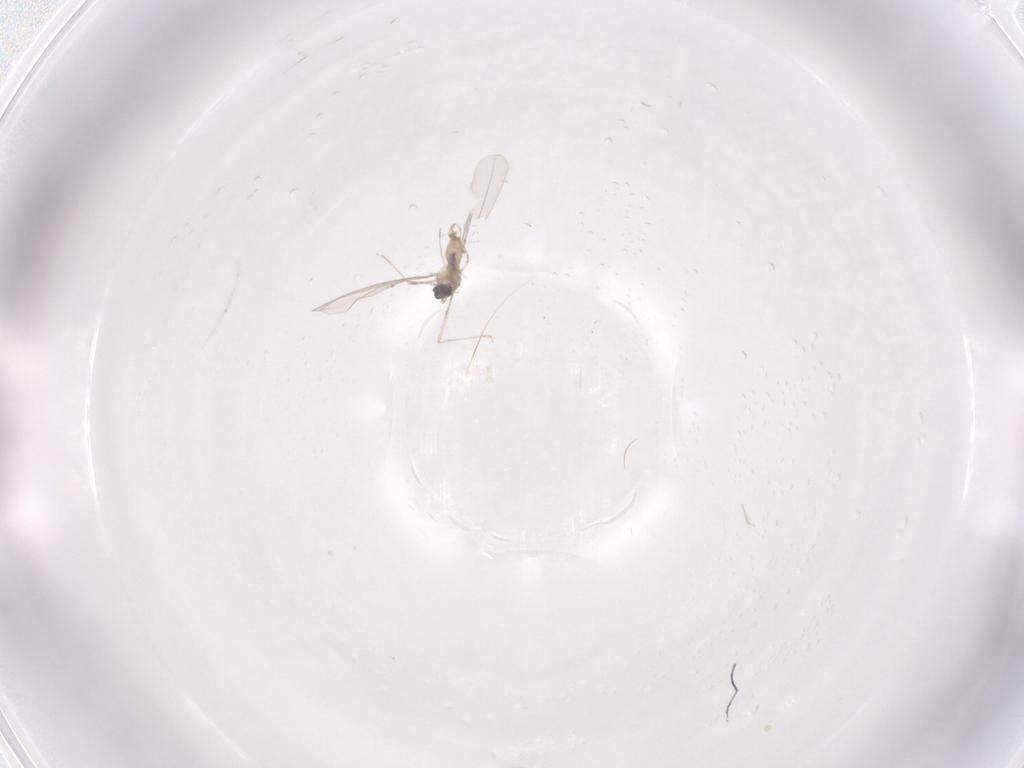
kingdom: Animalia
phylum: Arthropoda
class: Insecta
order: Diptera
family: Cecidomyiidae
